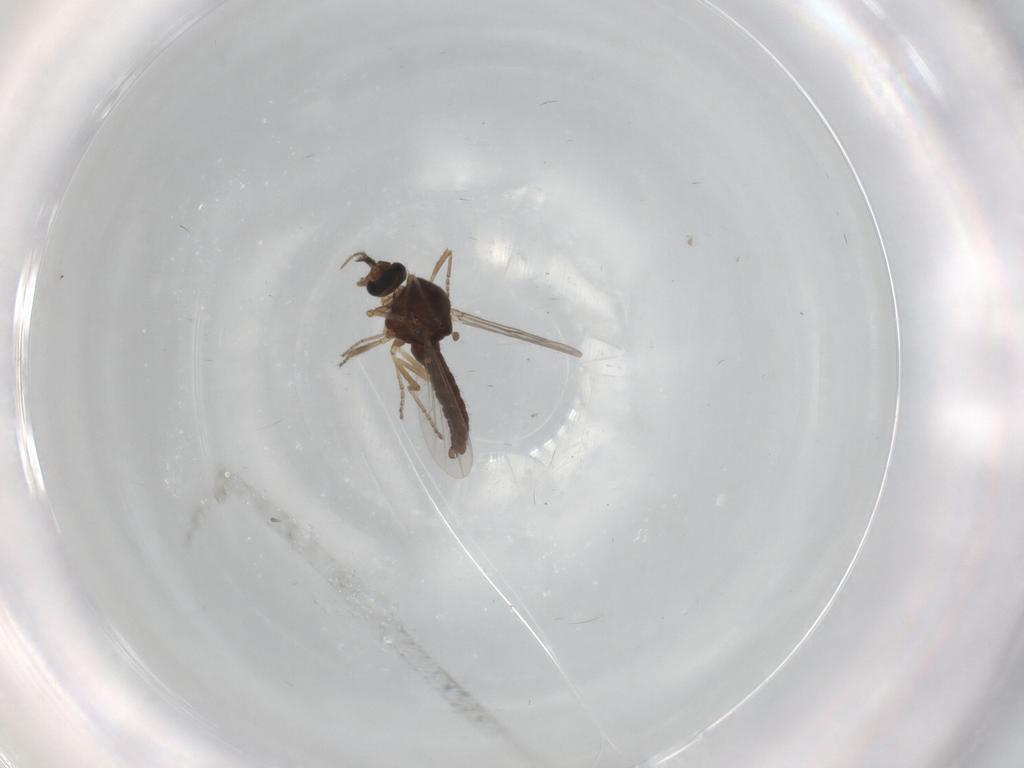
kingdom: Animalia
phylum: Arthropoda
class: Insecta
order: Diptera
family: Ceratopogonidae
